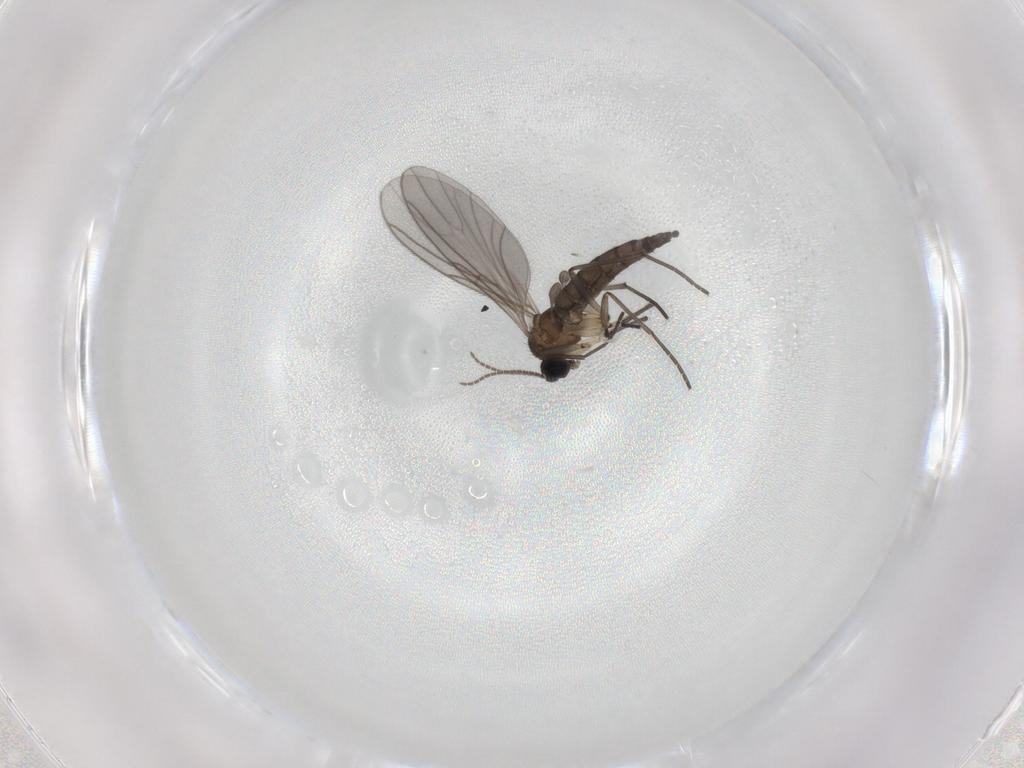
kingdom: Animalia
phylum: Arthropoda
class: Insecta
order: Diptera
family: Sciaridae
